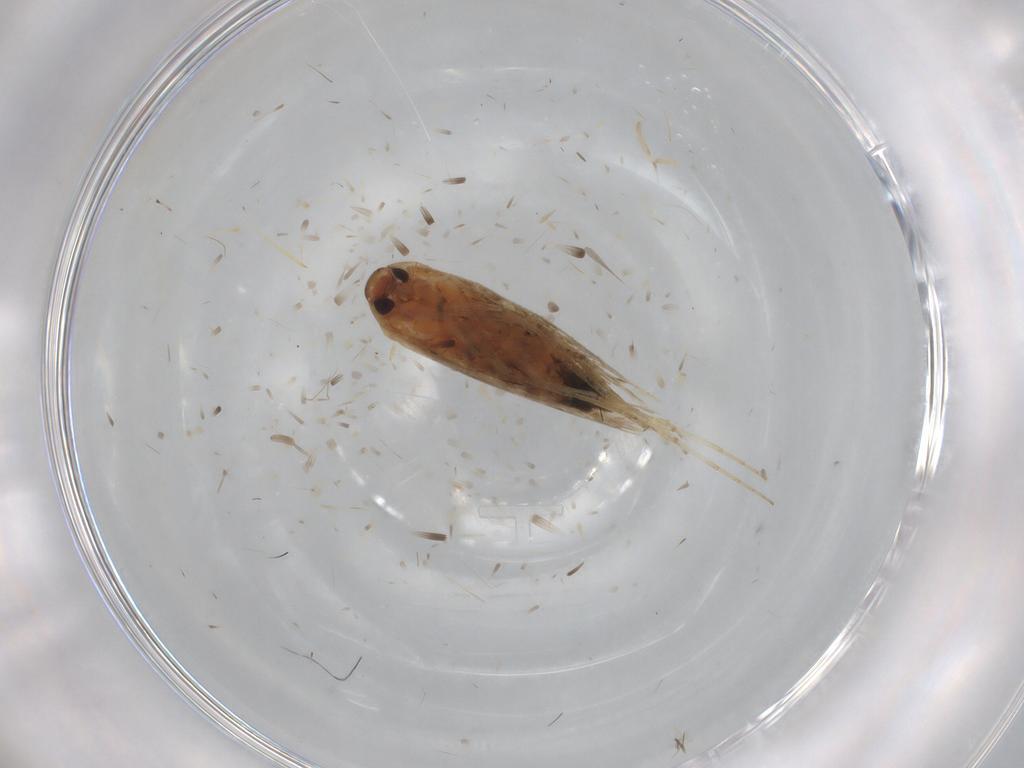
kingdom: Animalia
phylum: Arthropoda
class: Insecta
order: Lepidoptera
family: Cosmopterigidae
